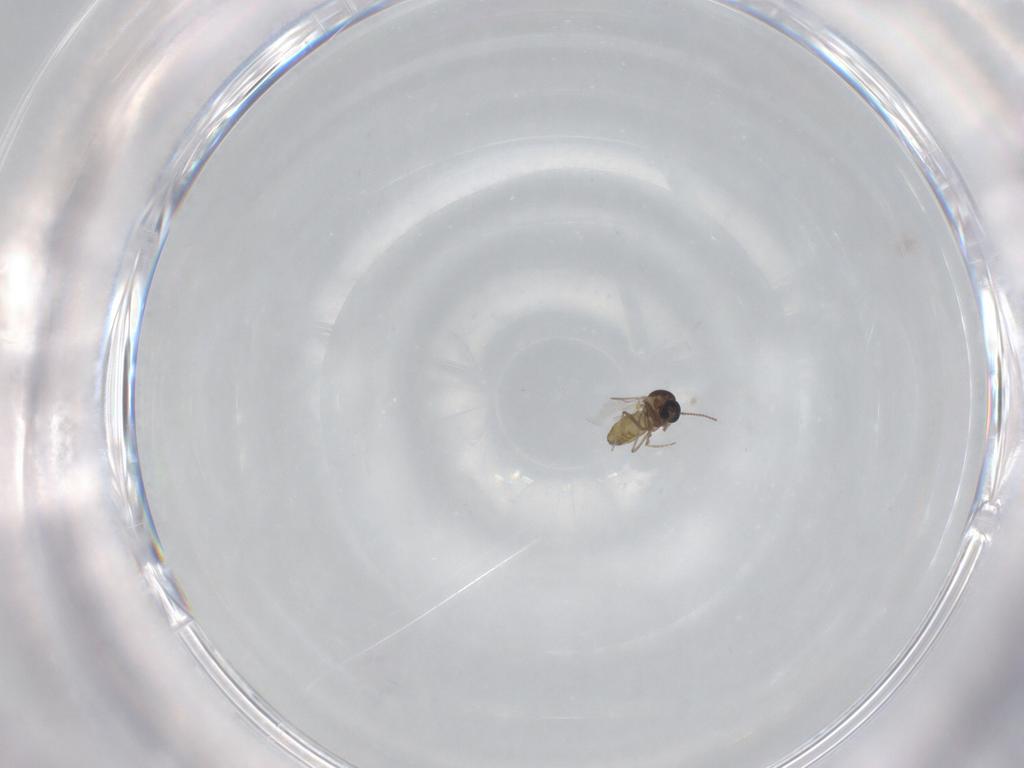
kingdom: Animalia
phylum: Arthropoda
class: Insecta
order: Diptera
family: Ceratopogonidae
